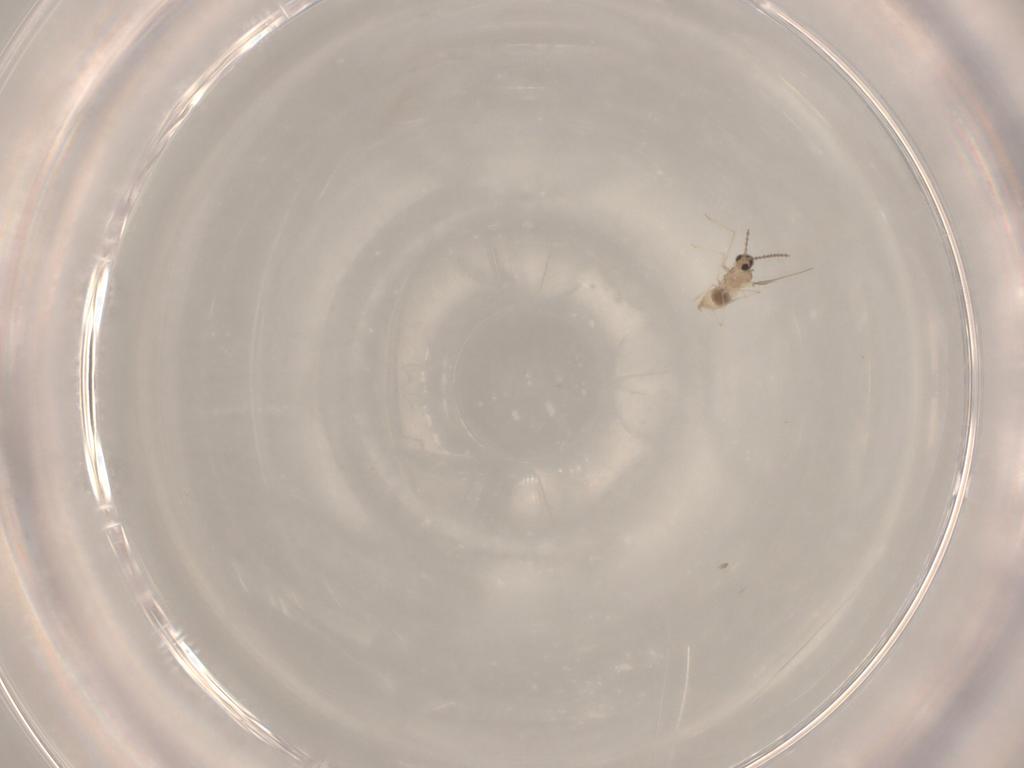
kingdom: Animalia
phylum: Arthropoda
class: Insecta
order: Diptera
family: Cecidomyiidae
